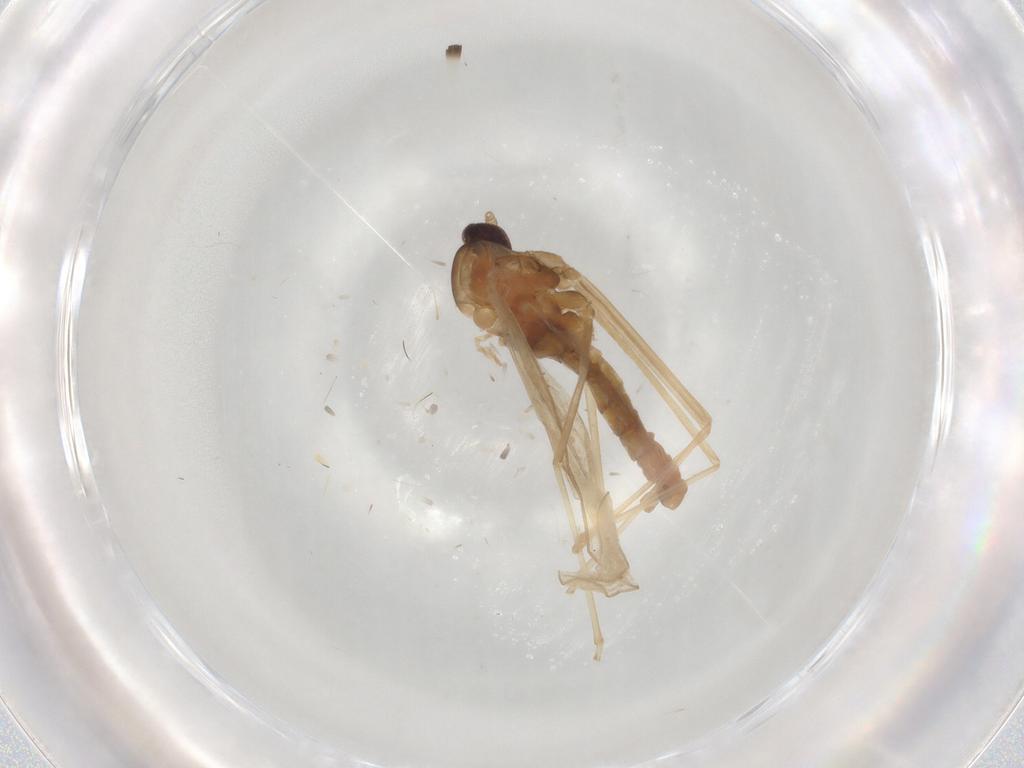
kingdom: Animalia
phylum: Arthropoda
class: Insecta
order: Diptera
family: Cecidomyiidae
